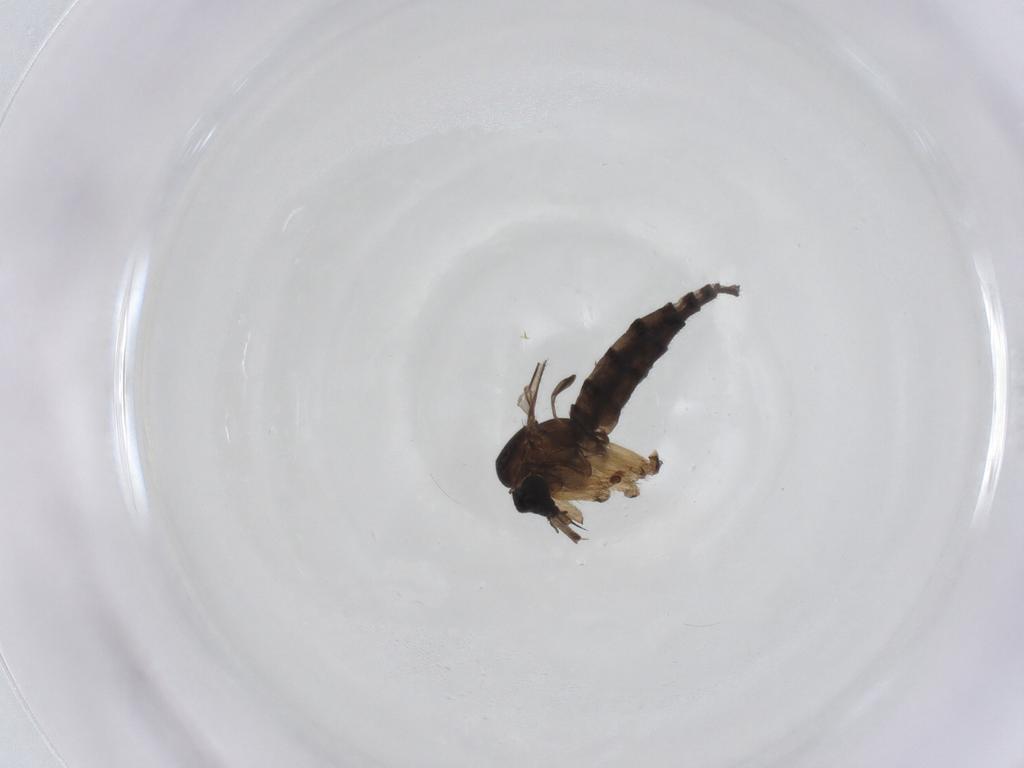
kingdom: Animalia
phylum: Arthropoda
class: Insecta
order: Diptera
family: Sciaridae
